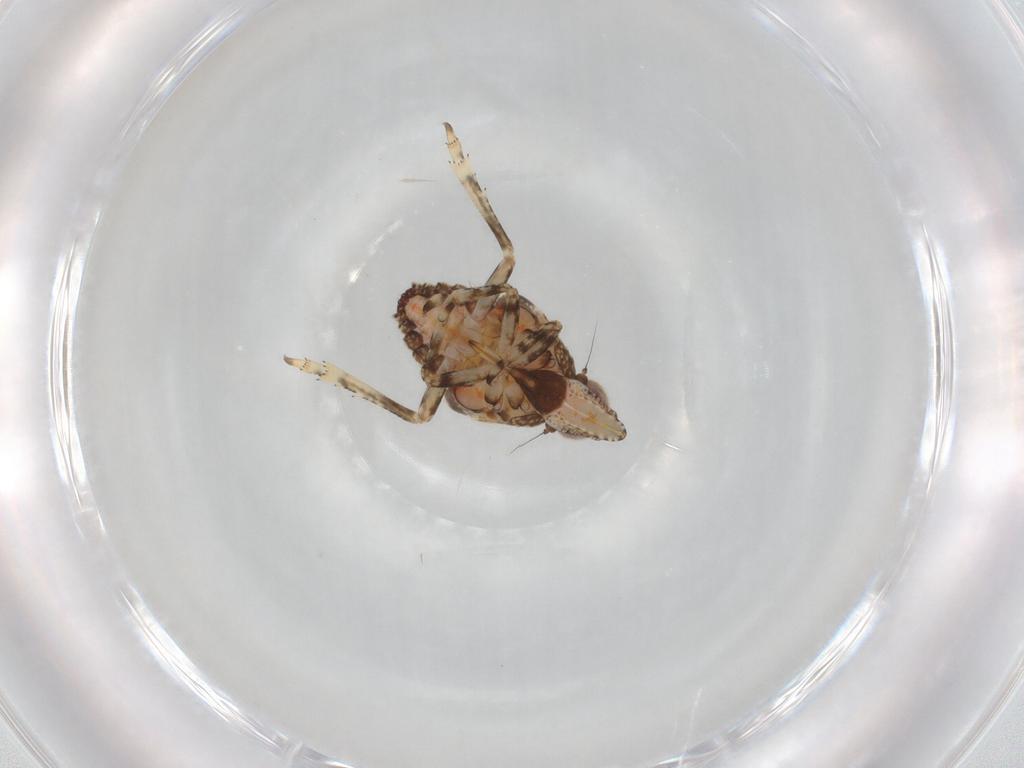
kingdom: Animalia
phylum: Arthropoda
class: Insecta
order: Hemiptera
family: Tropiduchidae
